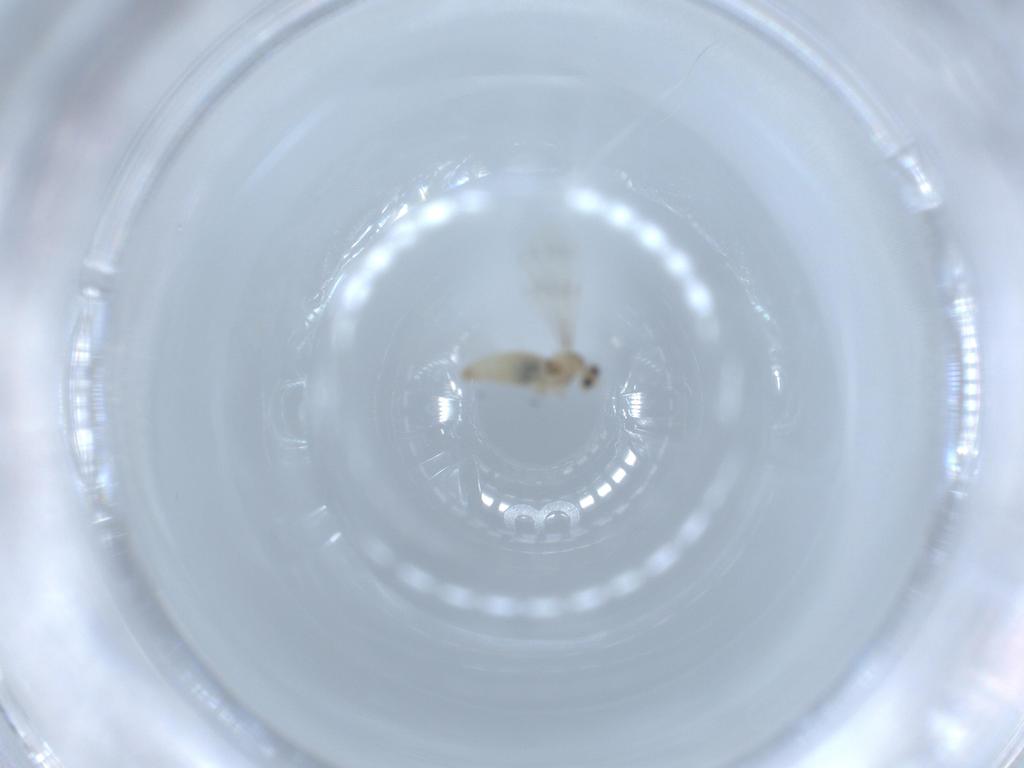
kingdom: Animalia
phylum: Arthropoda
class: Insecta
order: Diptera
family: Cecidomyiidae
